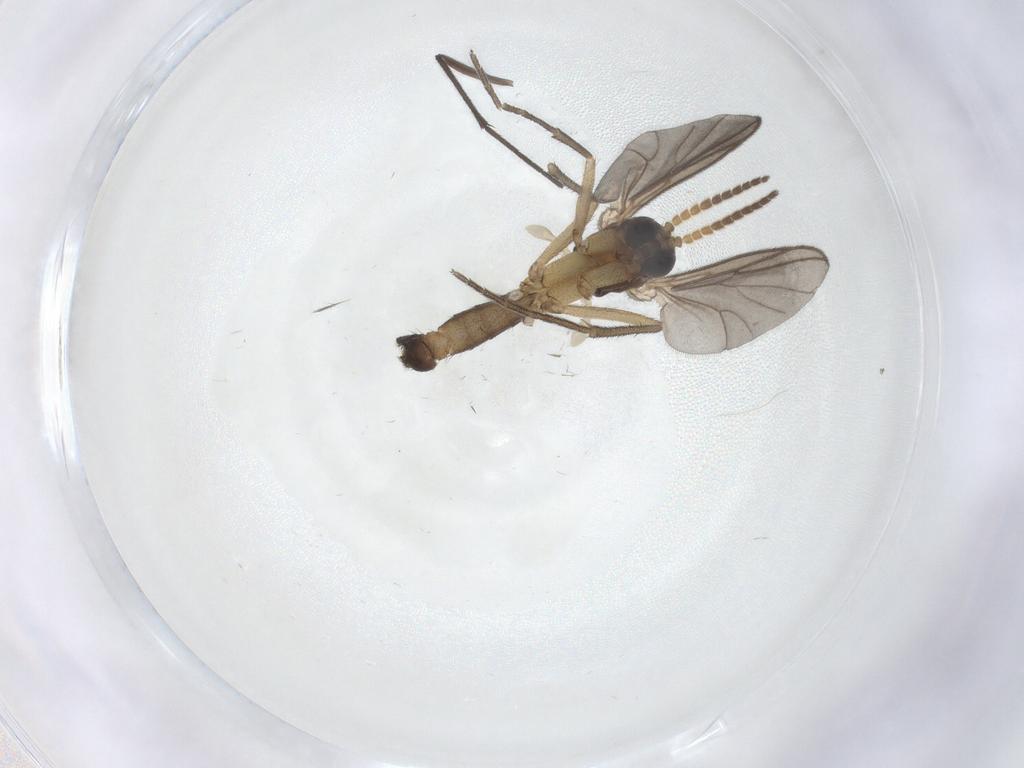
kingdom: Animalia
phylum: Arthropoda
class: Insecta
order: Diptera
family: Mycetophilidae
